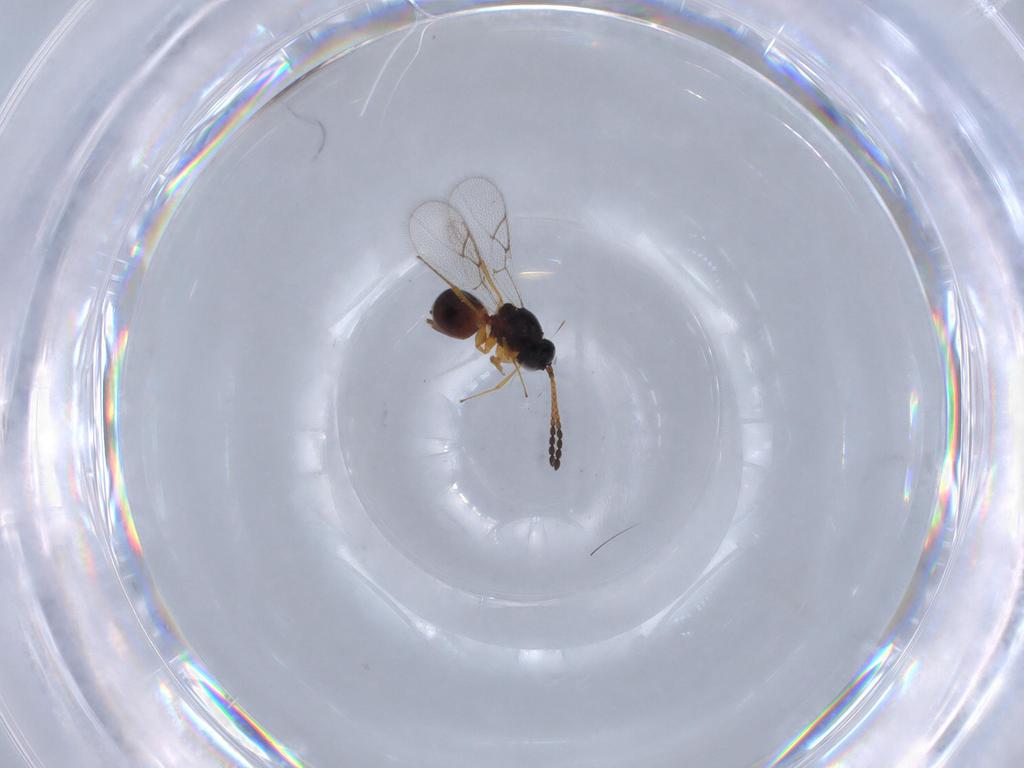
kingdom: Animalia
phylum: Arthropoda
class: Insecta
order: Hymenoptera
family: Figitidae
